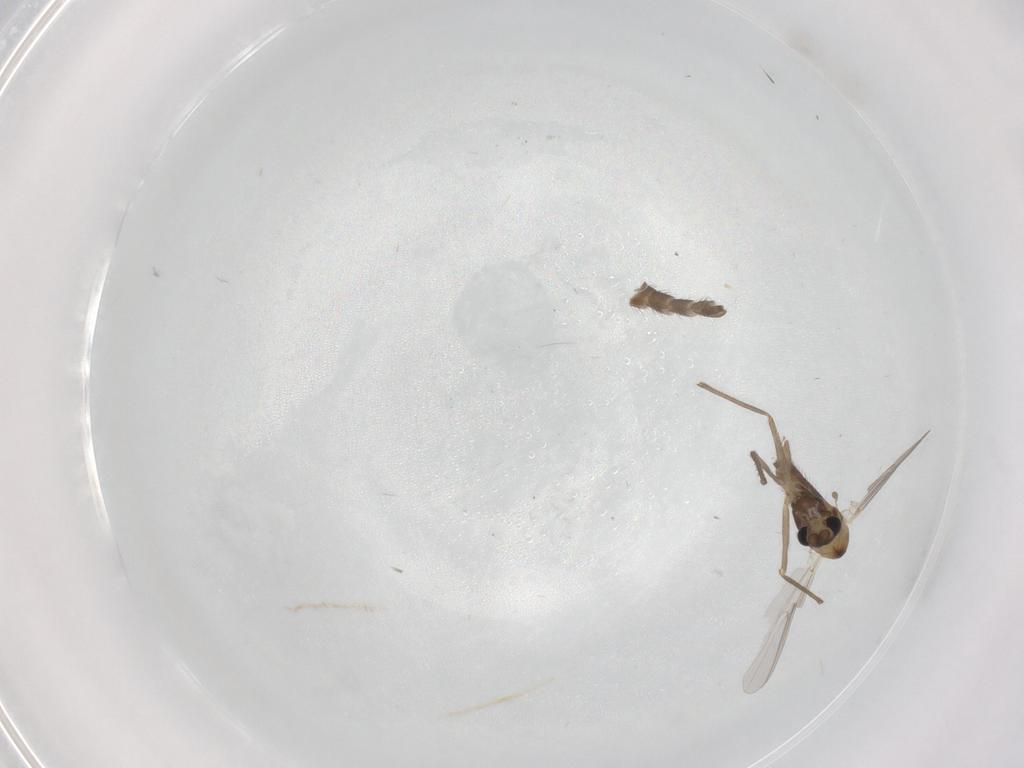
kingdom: Animalia
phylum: Arthropoda
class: Insecta
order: Diptera
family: Chironomidae
